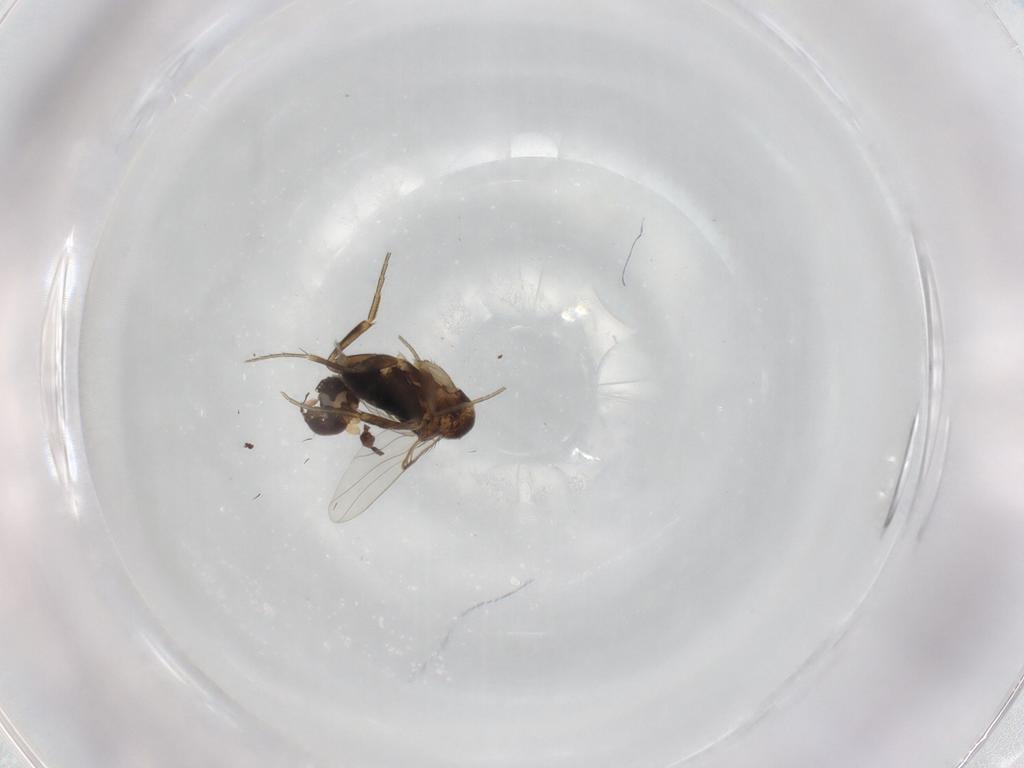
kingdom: Animalia
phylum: Arthropoda
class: Insecta
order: Diptera
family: Phoridae
